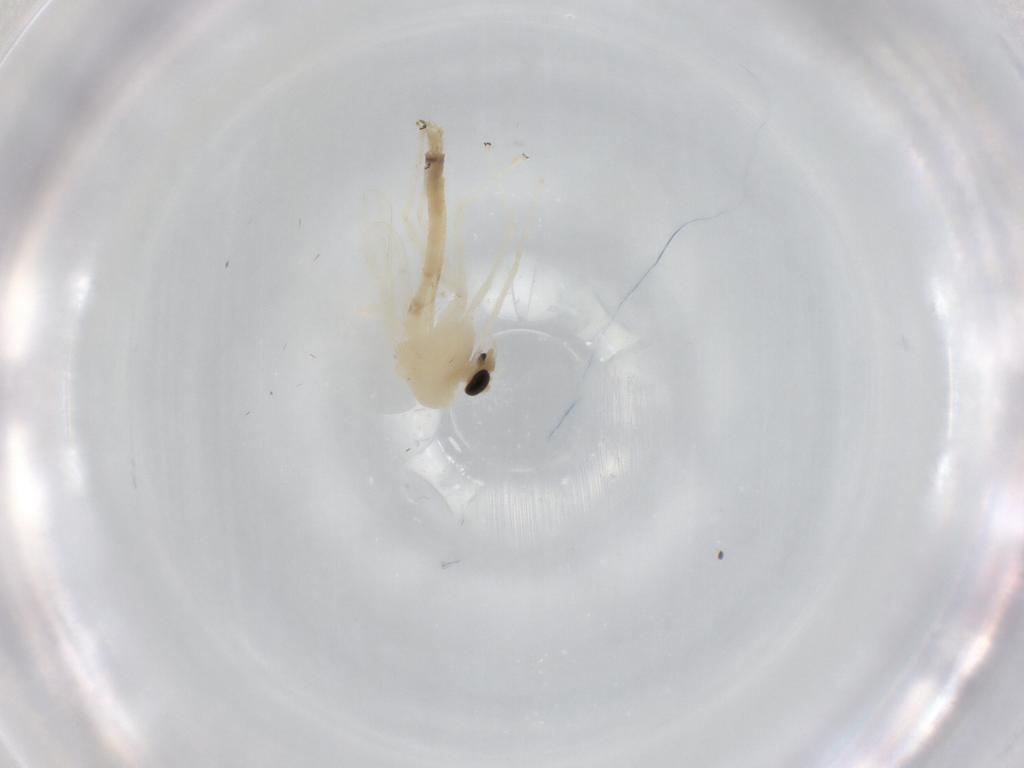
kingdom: Animalia
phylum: Arthropoda
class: Insecta
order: Diptera
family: Chironomidae
